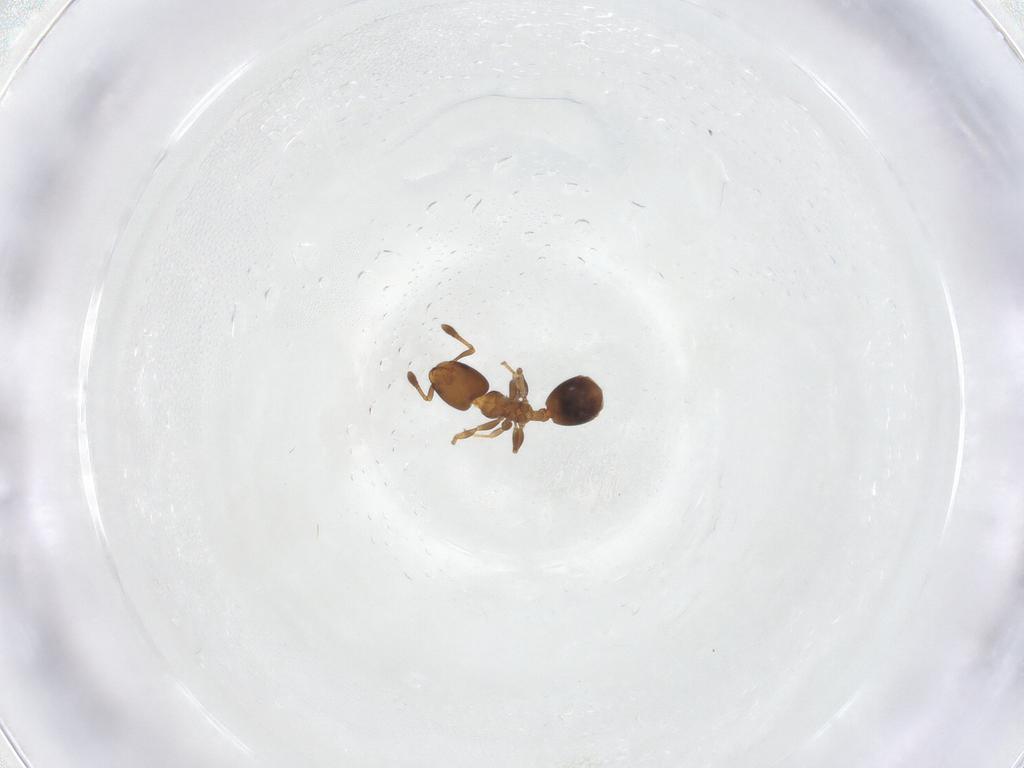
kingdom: Animalia
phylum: Arthropoda
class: Insecta
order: Hymenoptera
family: Formicidae
